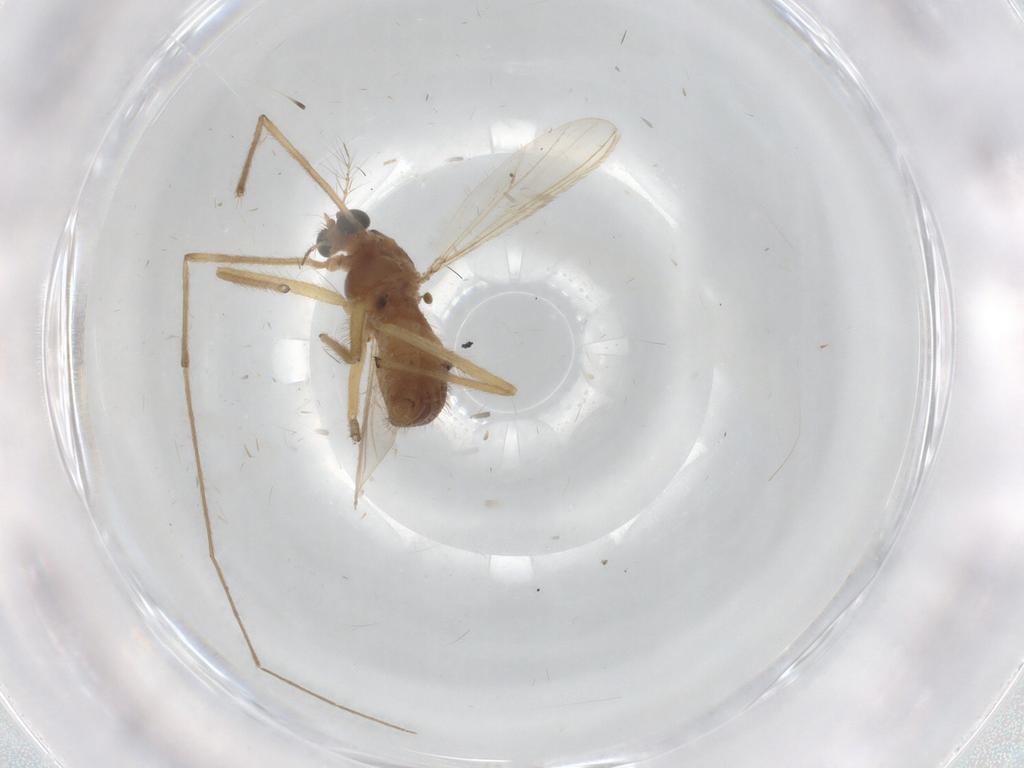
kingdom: Animalia
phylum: Arthropoda
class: Insecta
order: Diptera
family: Chironomidae
